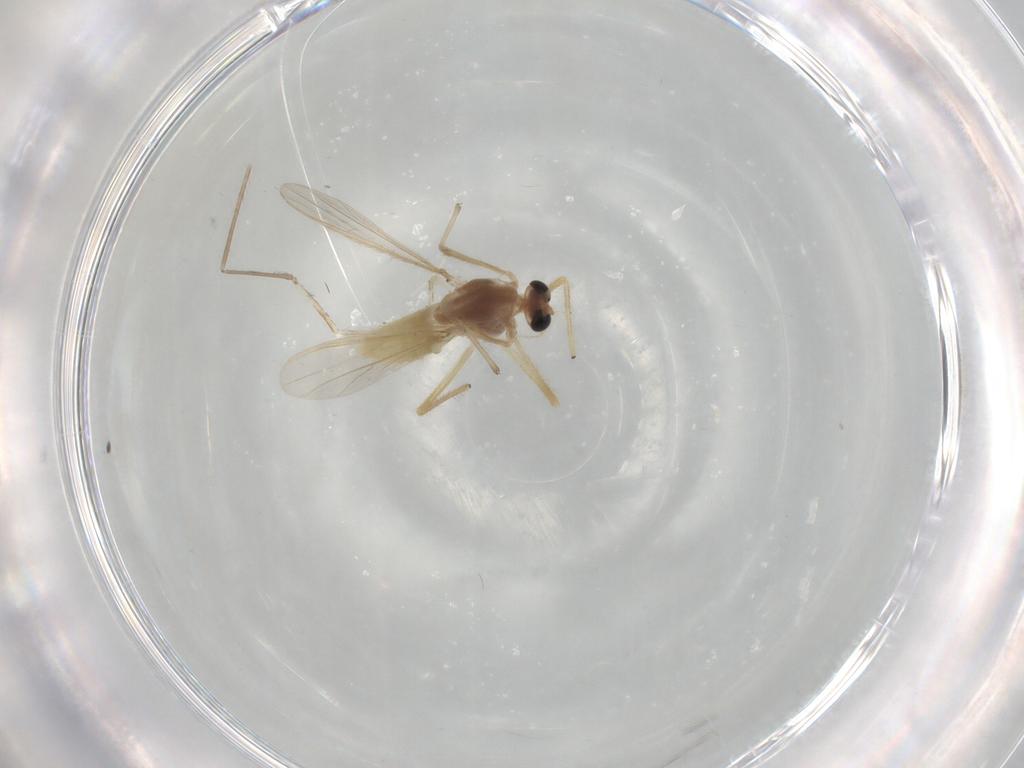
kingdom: Animalia
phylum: Arthropoda
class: Insecta
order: Diptera
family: Chironomidae
